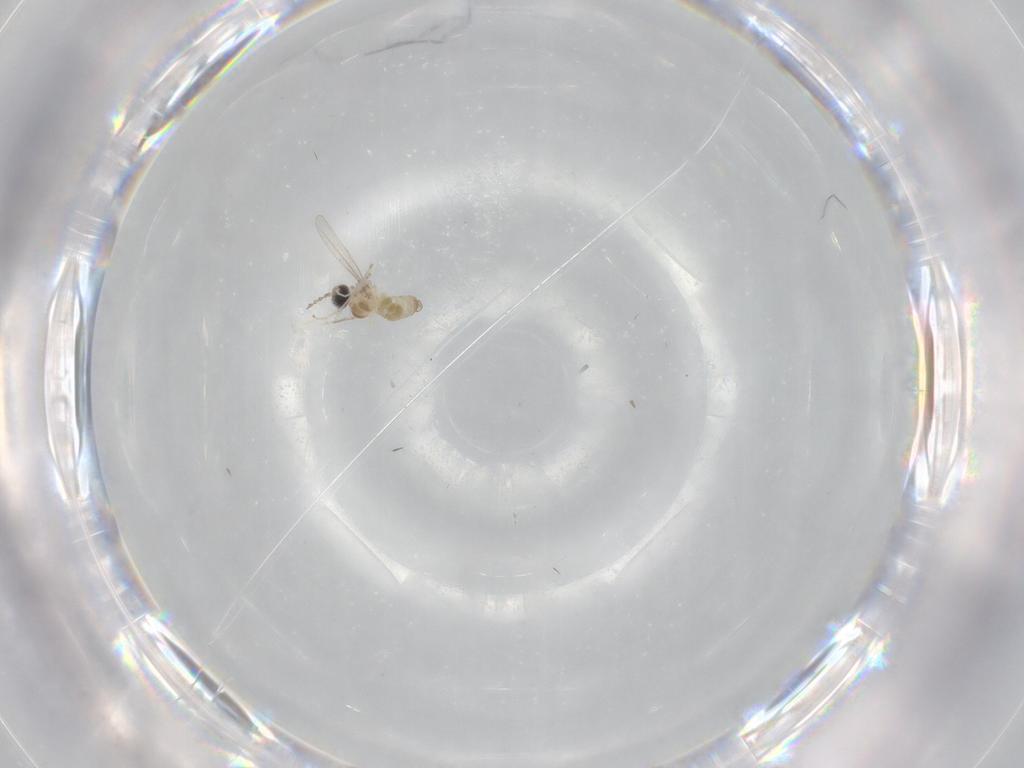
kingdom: Animalia
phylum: Arthropoda
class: Insecta
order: Diptera
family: Cecidomyiidae
